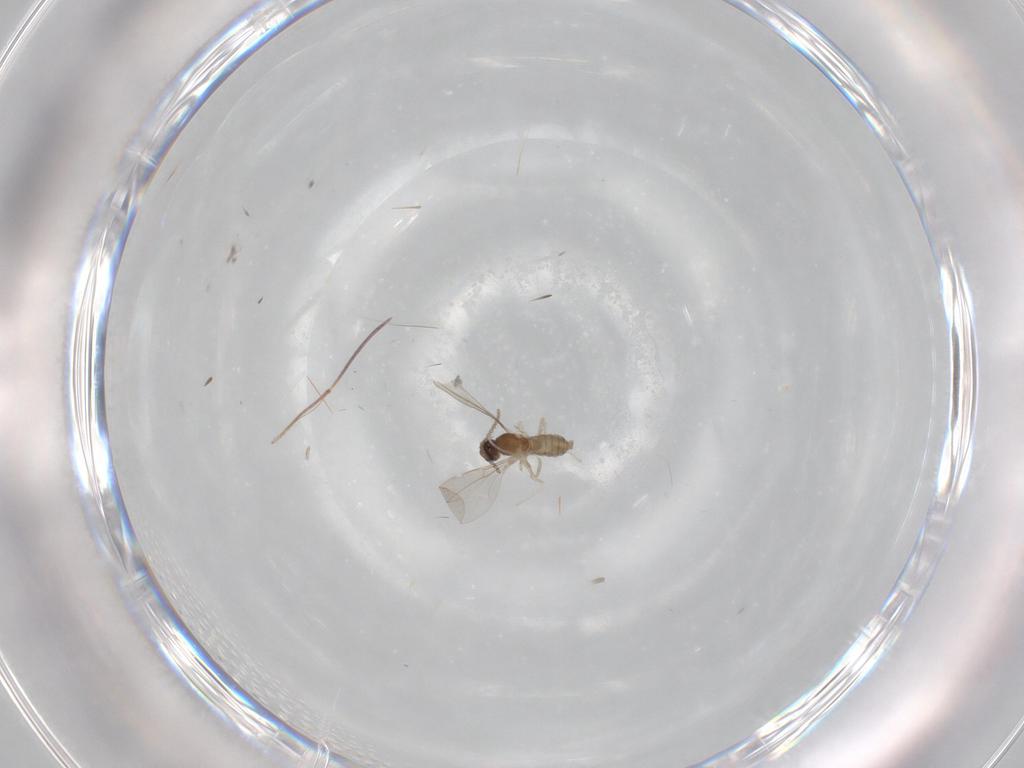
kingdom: Animalia
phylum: Arthropoda
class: Insecta
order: Diptera
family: Cecidomyiidae
